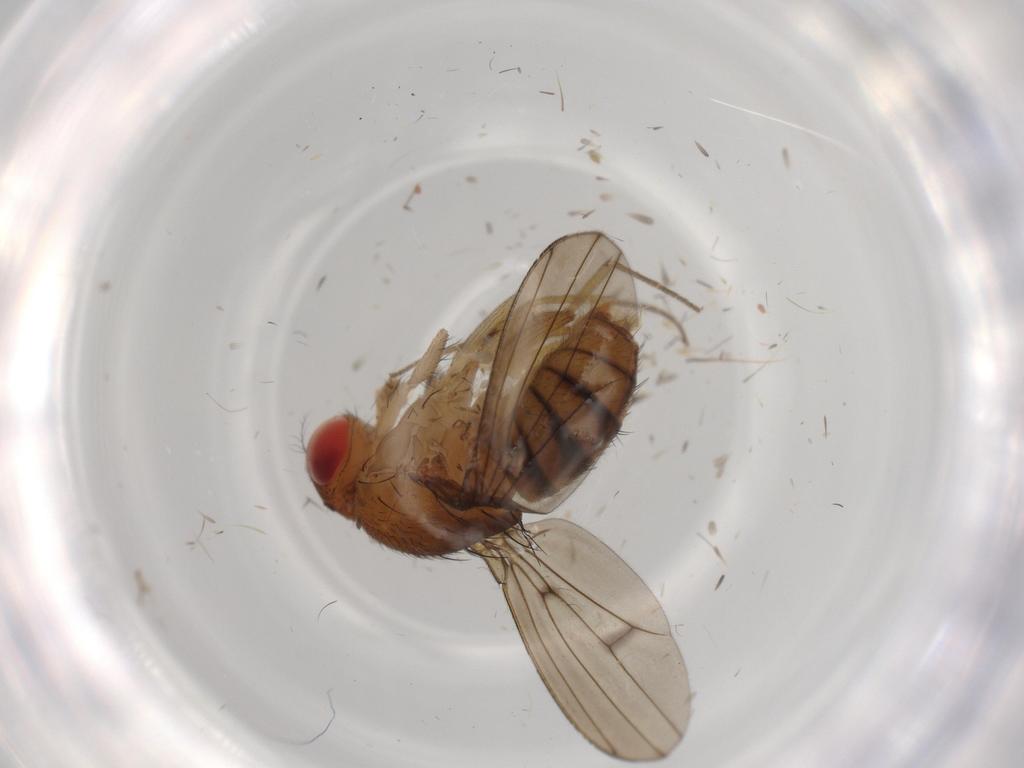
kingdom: Animalia
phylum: Arthropoda
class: Insecta
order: Diptera
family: Drosophilidae
